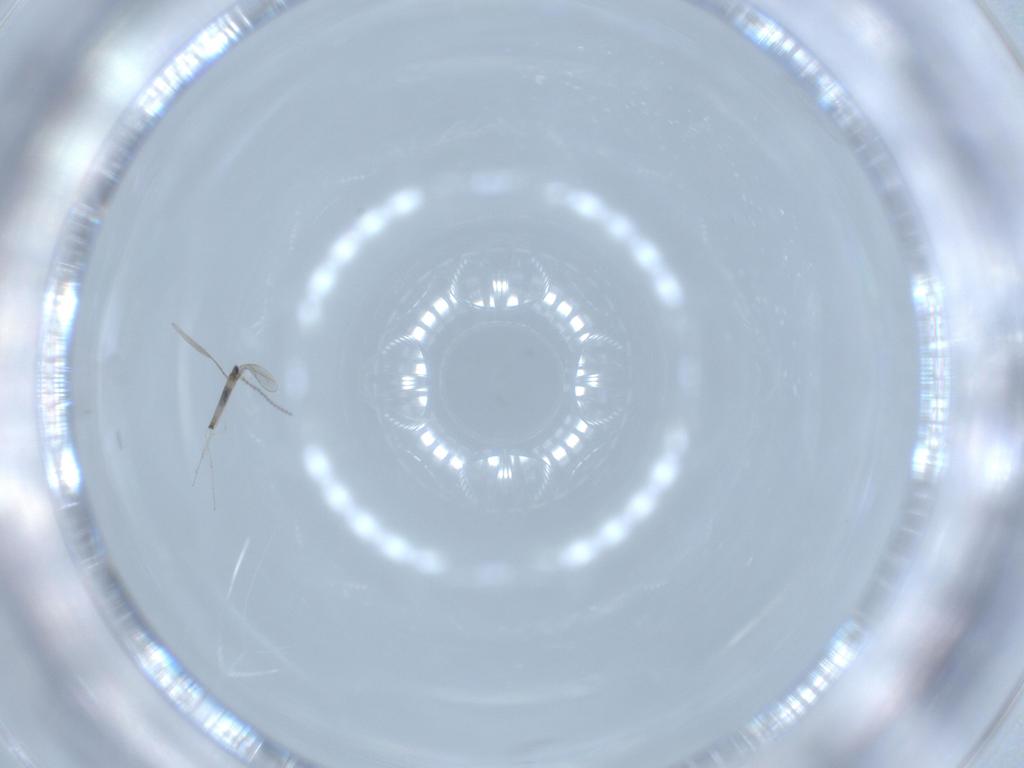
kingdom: Animalia
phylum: Arthropoda
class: Insecta
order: Diptera
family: Cecidomyiidae
